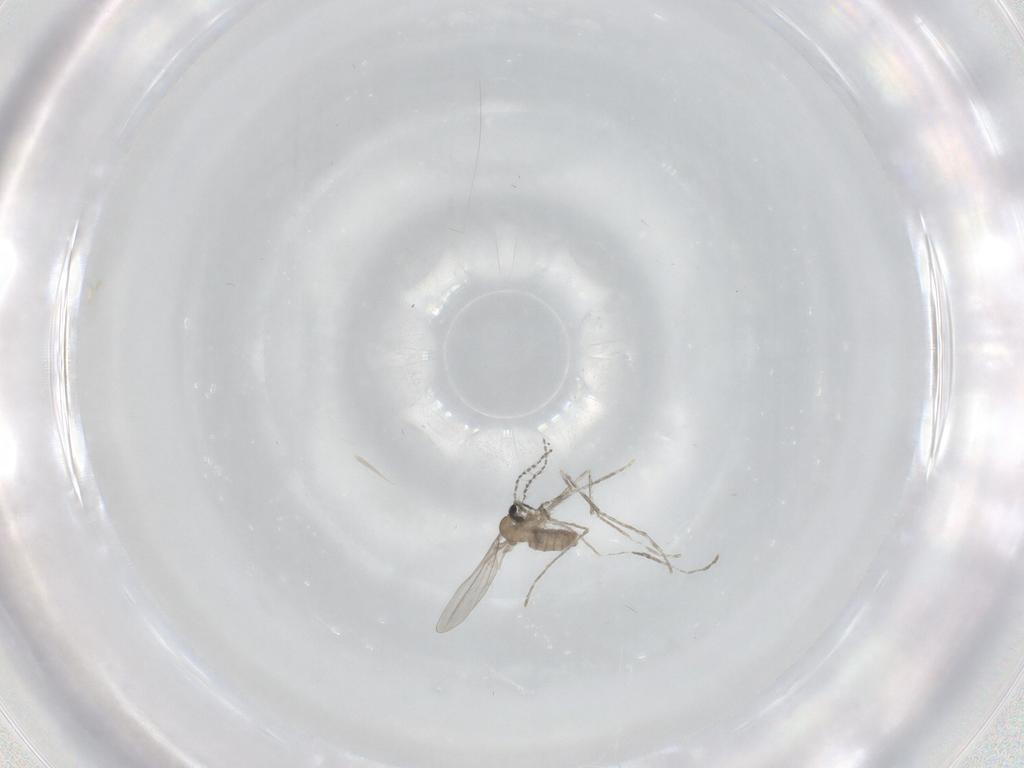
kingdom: Animalia
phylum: Arthropoda
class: Insecta
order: Diptera
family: Cecidomyiidae
